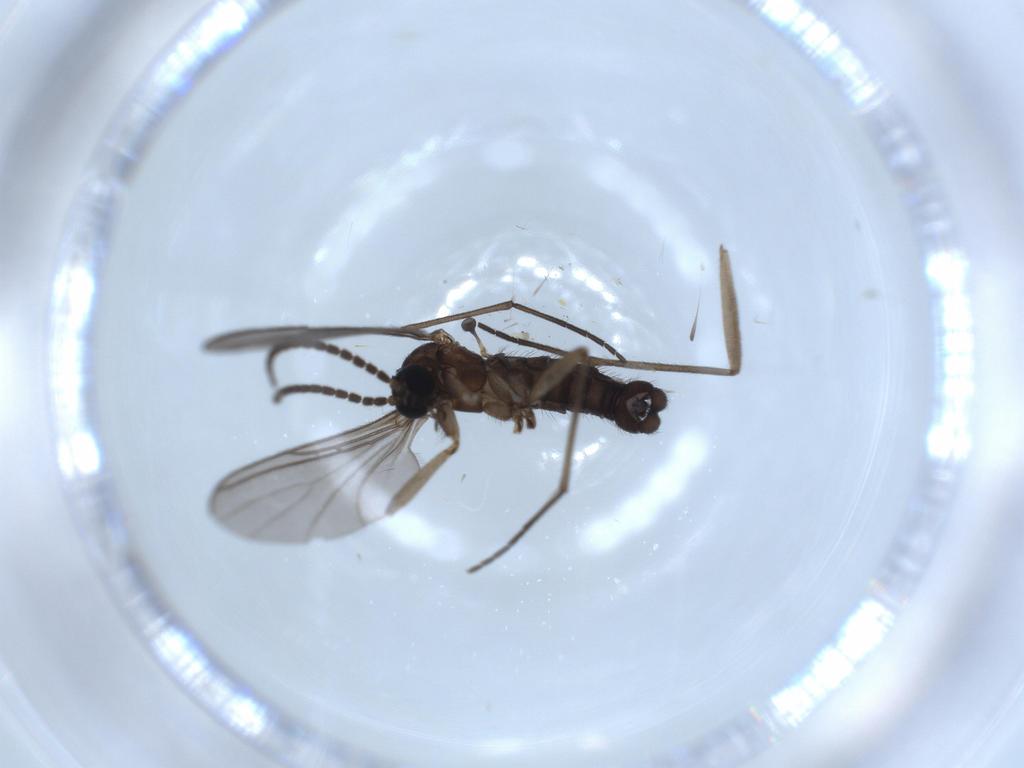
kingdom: Animalia
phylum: Arthropoda
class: Insecta
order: Diptera
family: Sciaridae
